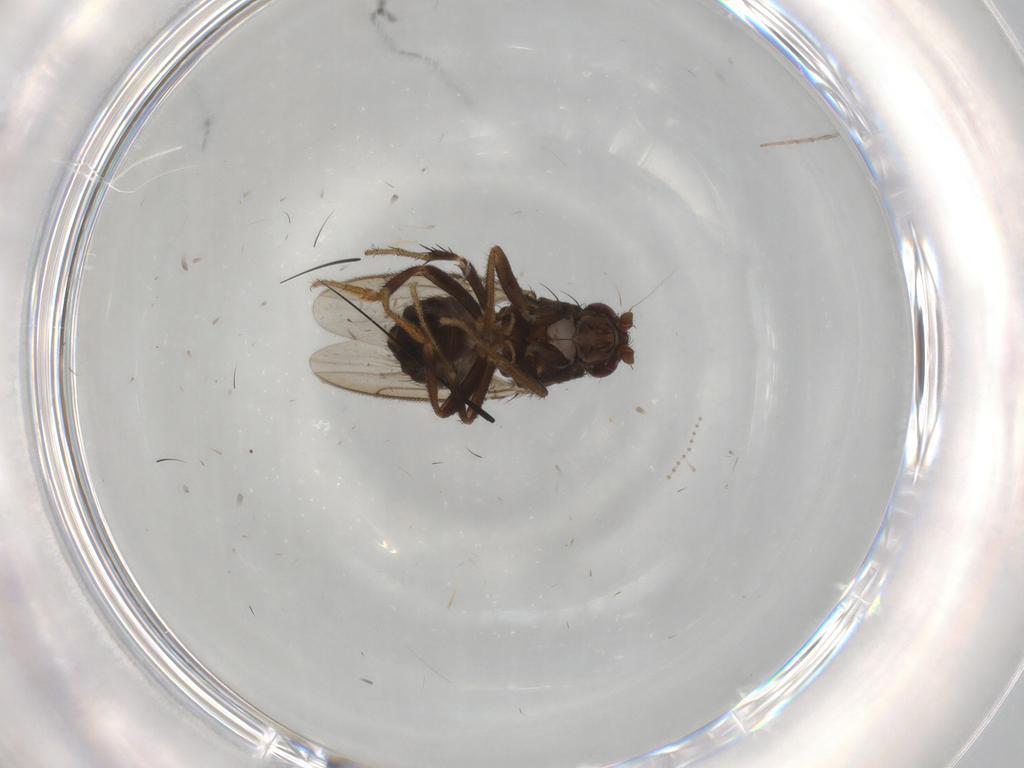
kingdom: Animalia
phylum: Arthropoda
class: Insecta
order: Diptera
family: Sphaeroceridae
